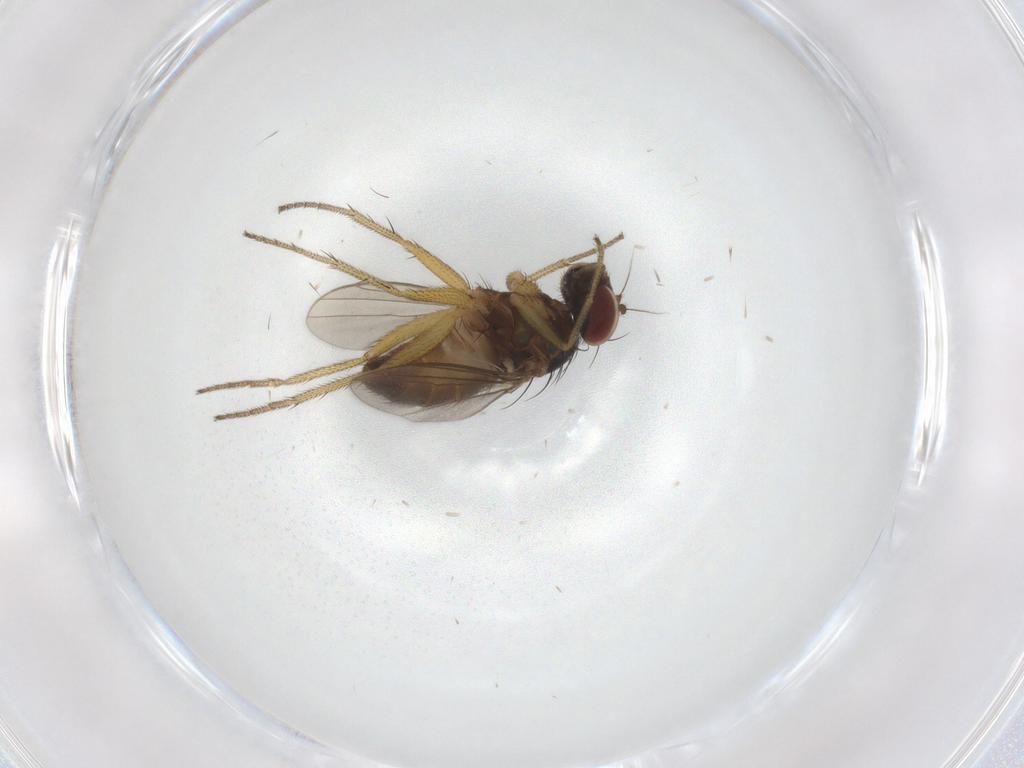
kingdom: Animalia
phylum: Arthropoda
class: Insecta
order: Diptera
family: Dolichopodidae
